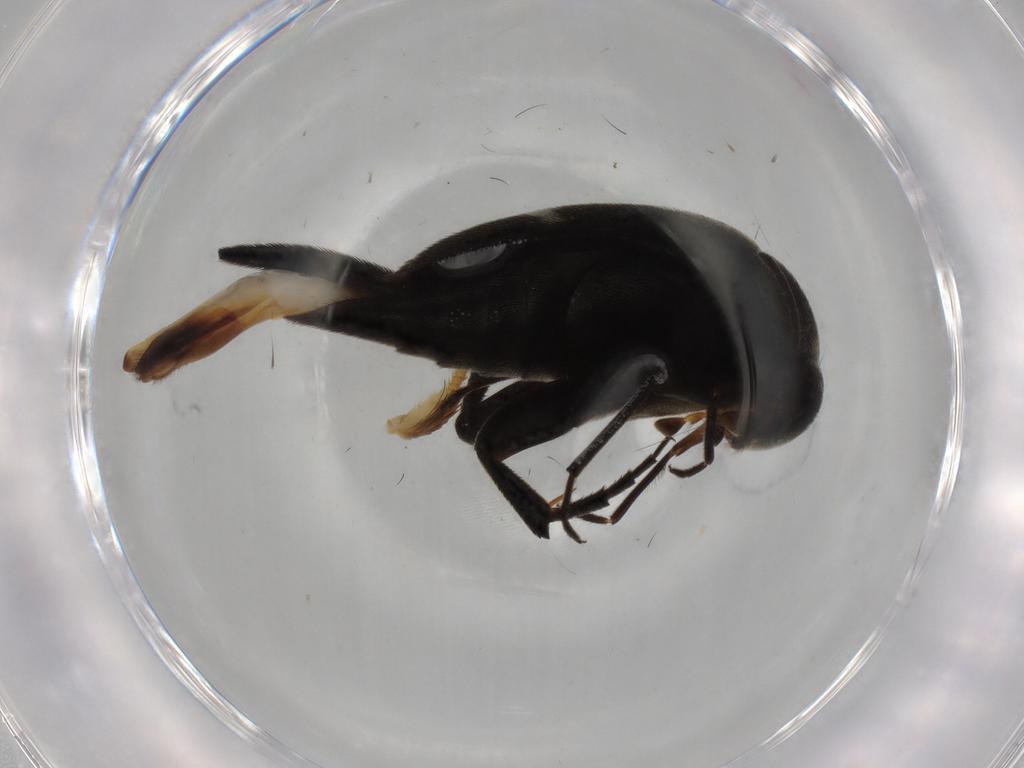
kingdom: Animalia
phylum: Arthropoda
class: Insecta
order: Coleoptera
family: Mordellidae
